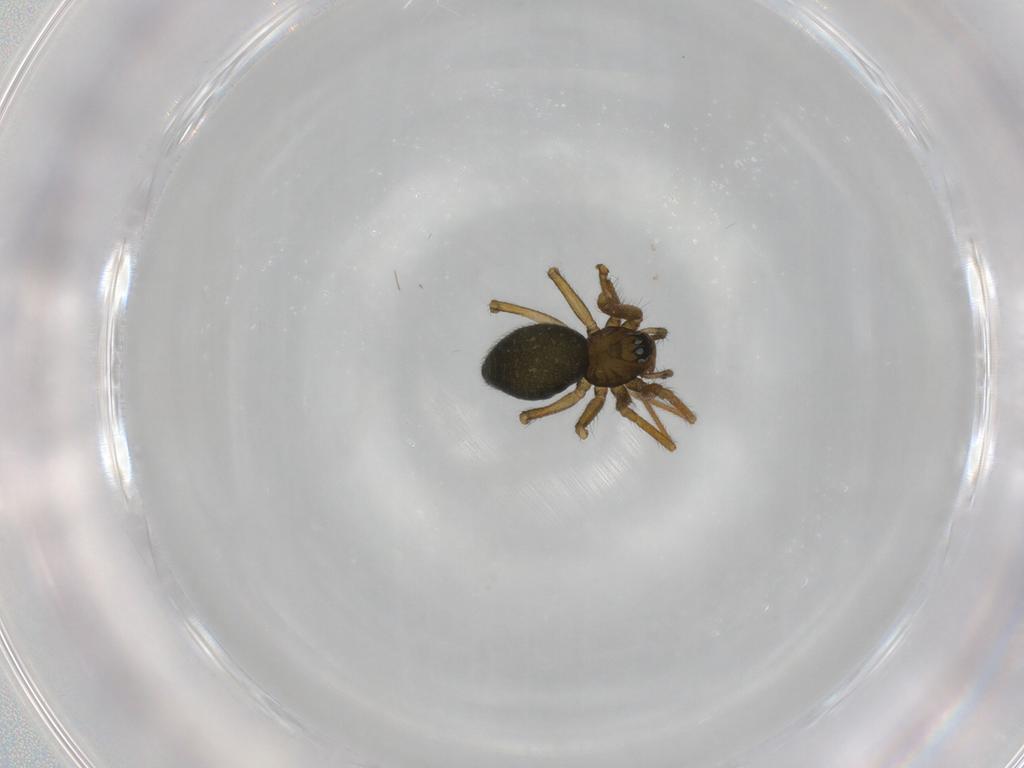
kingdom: Animalia
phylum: Arthropoda
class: Arachnida
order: Araneae
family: Linyphiidae
